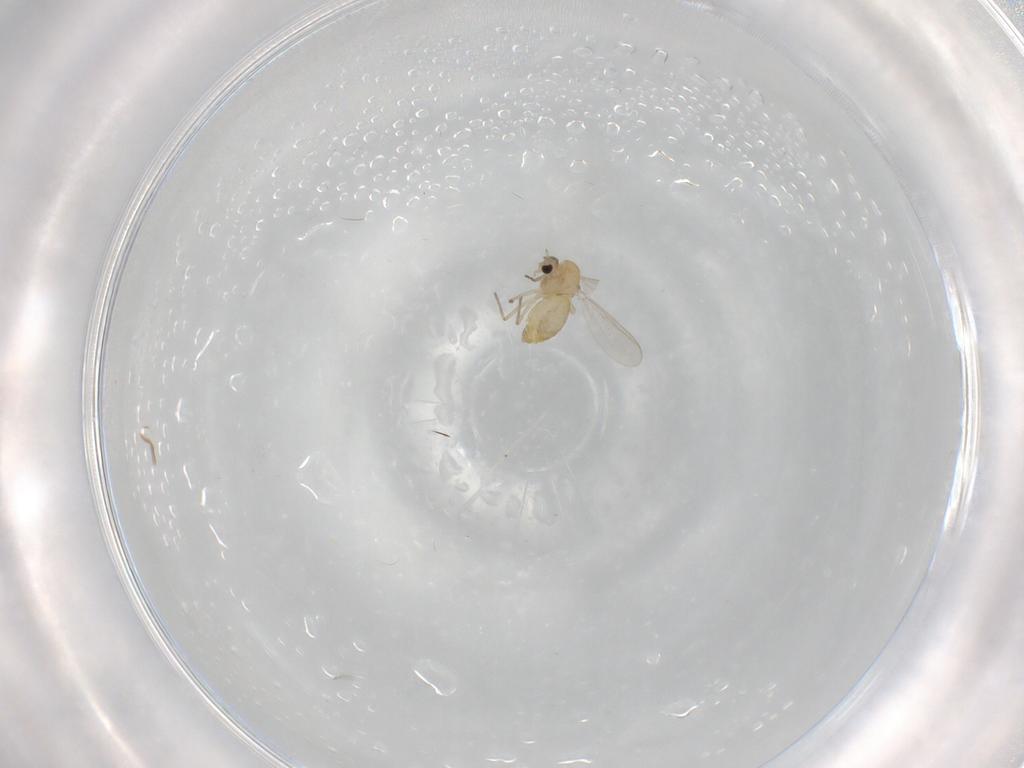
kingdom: Animalia
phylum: Arthropoda
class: Insecta
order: Diptera
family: Chironomidae
